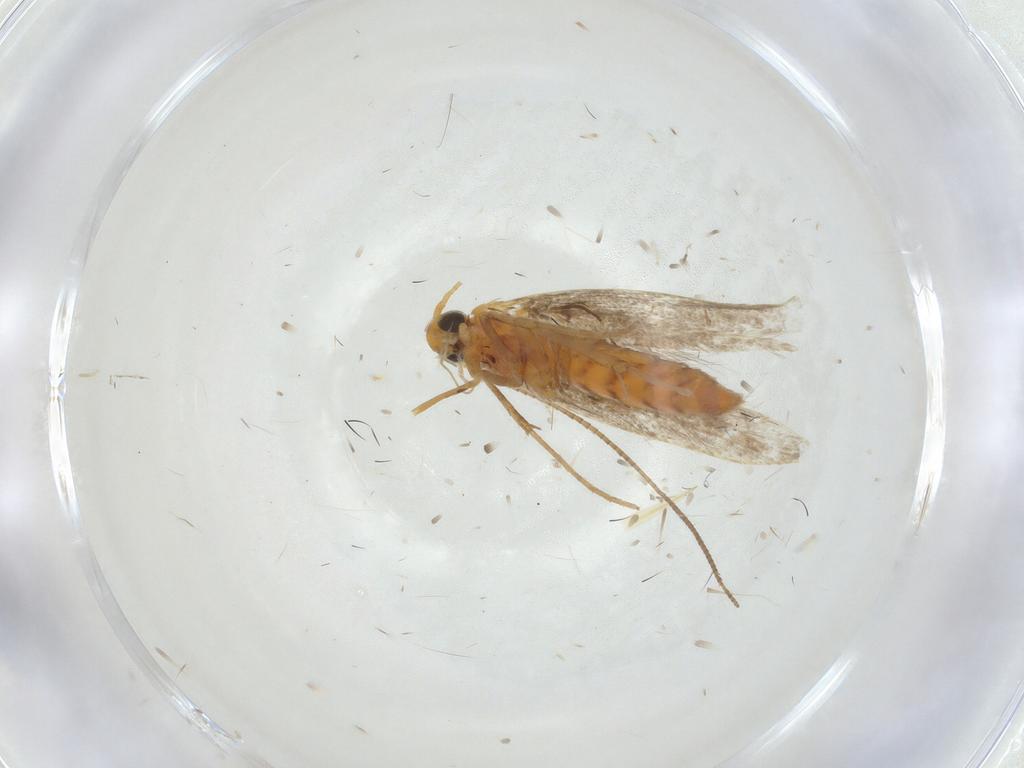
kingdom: Animalia
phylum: Arthropoda
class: Insecta
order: Lepidoptera
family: Gracillariidae
